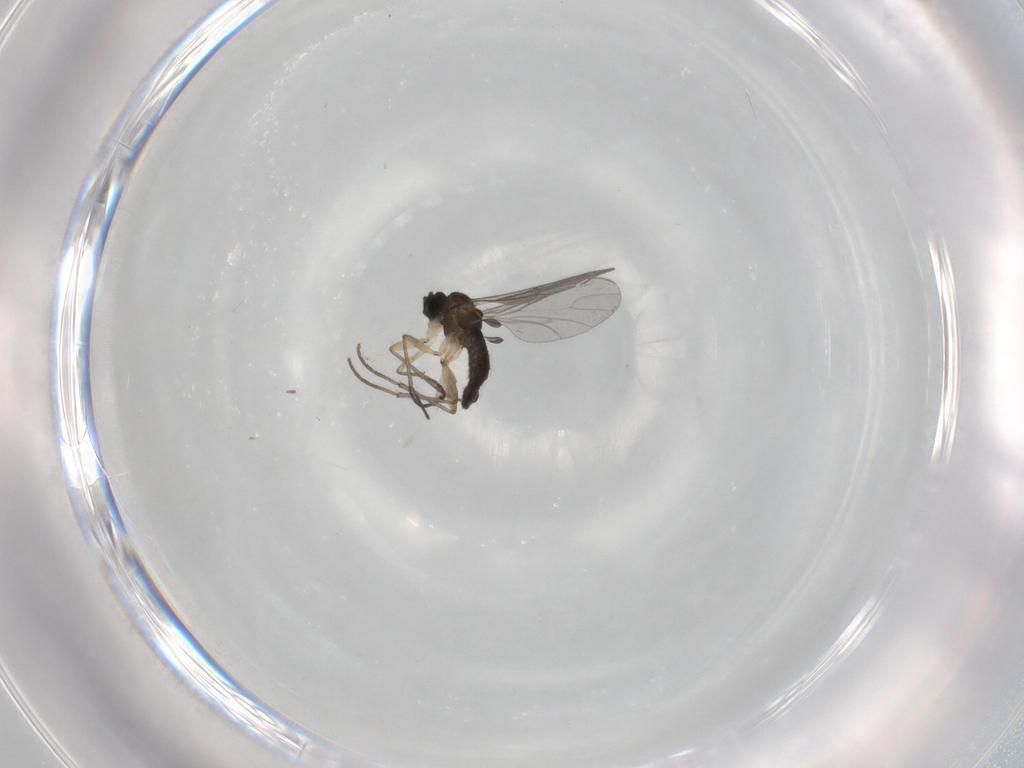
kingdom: Animalia
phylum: Arthropoda
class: Insecta
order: Diptera
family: Sciaridae
